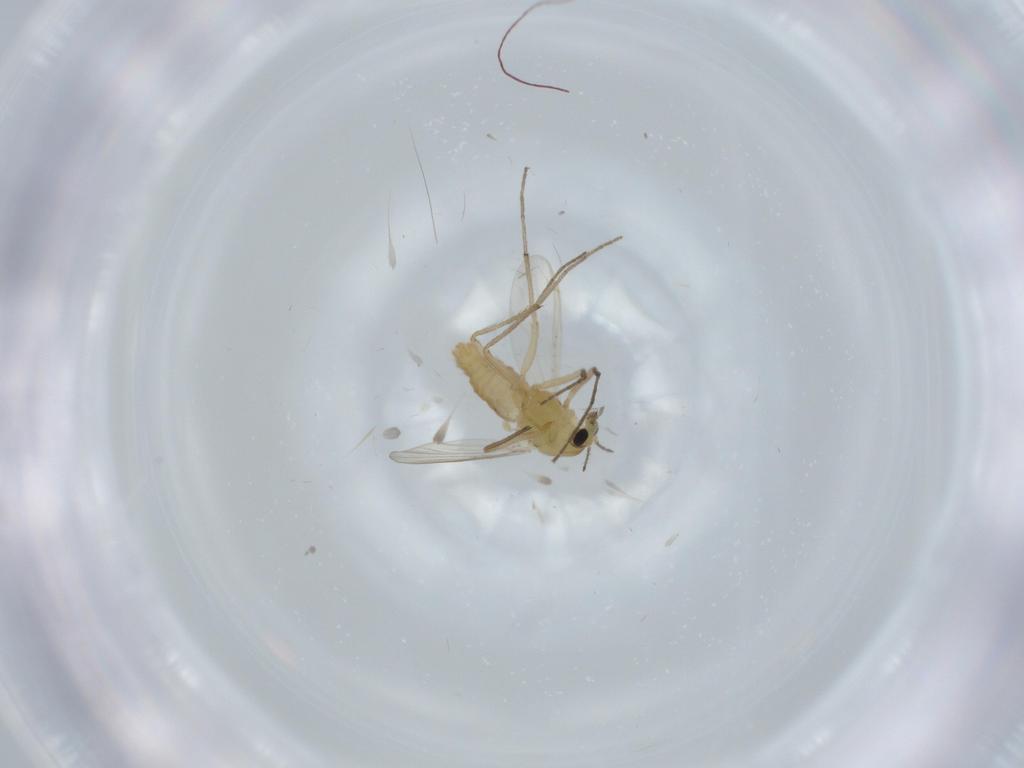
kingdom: Animalia
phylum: Arthropoda
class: Insecta
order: Diptera
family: Chironomidae
